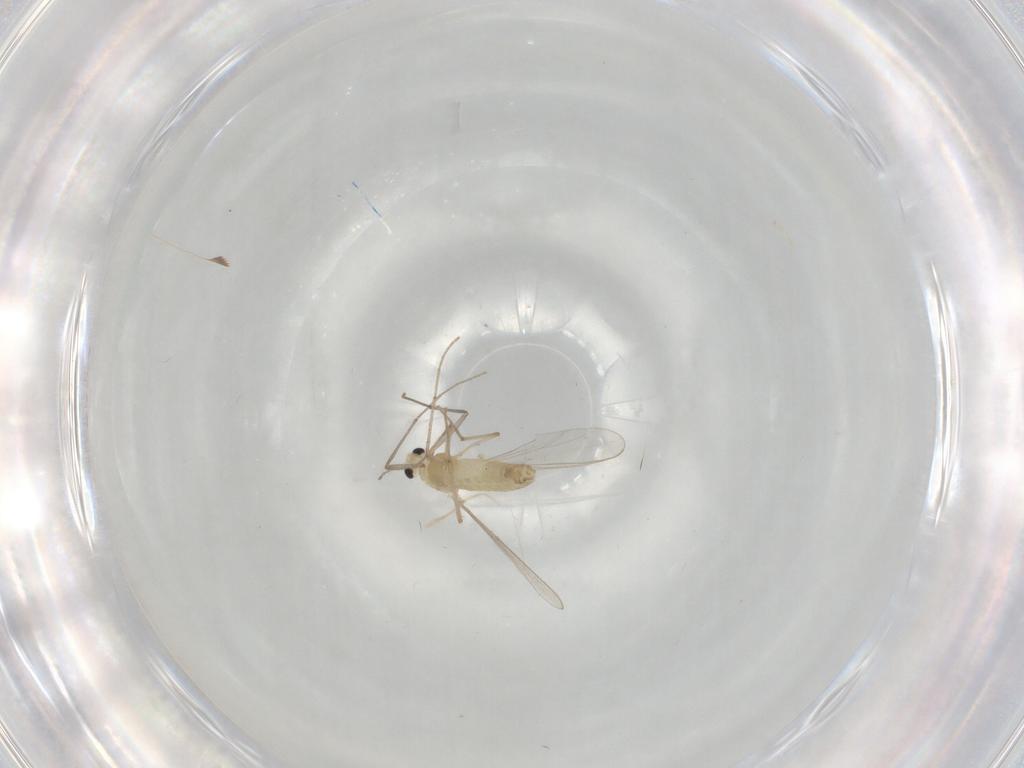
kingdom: Animalia
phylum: Arthropoda
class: Insecta
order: Diptera
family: Chironomidae
